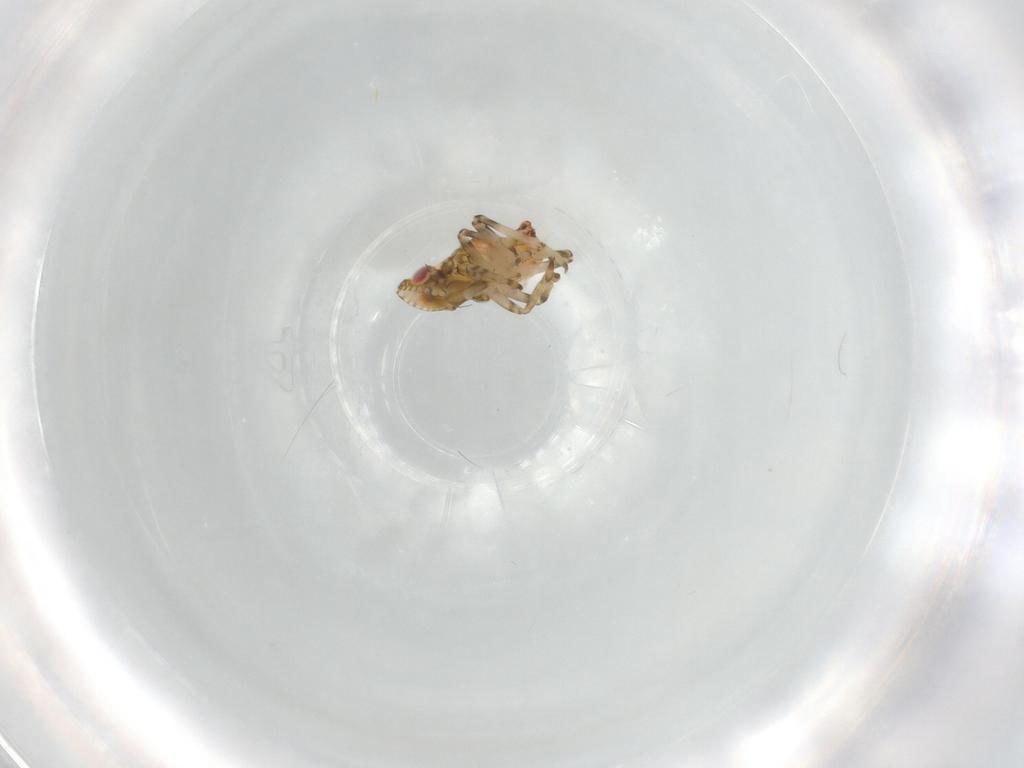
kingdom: Animalia
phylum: Arthropoda
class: Insecta
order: Hemiptera
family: Tropiduchidae
